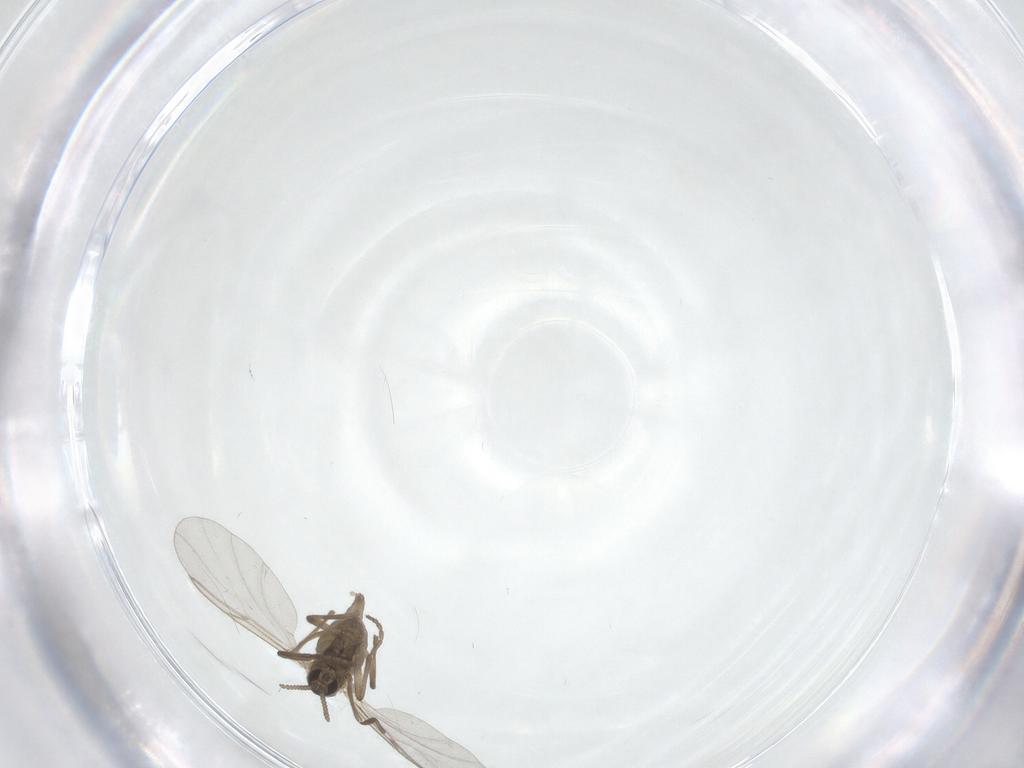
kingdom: Animalia
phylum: Arthropoda
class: Insecta
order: Diptera
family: Cecidomyiidae
